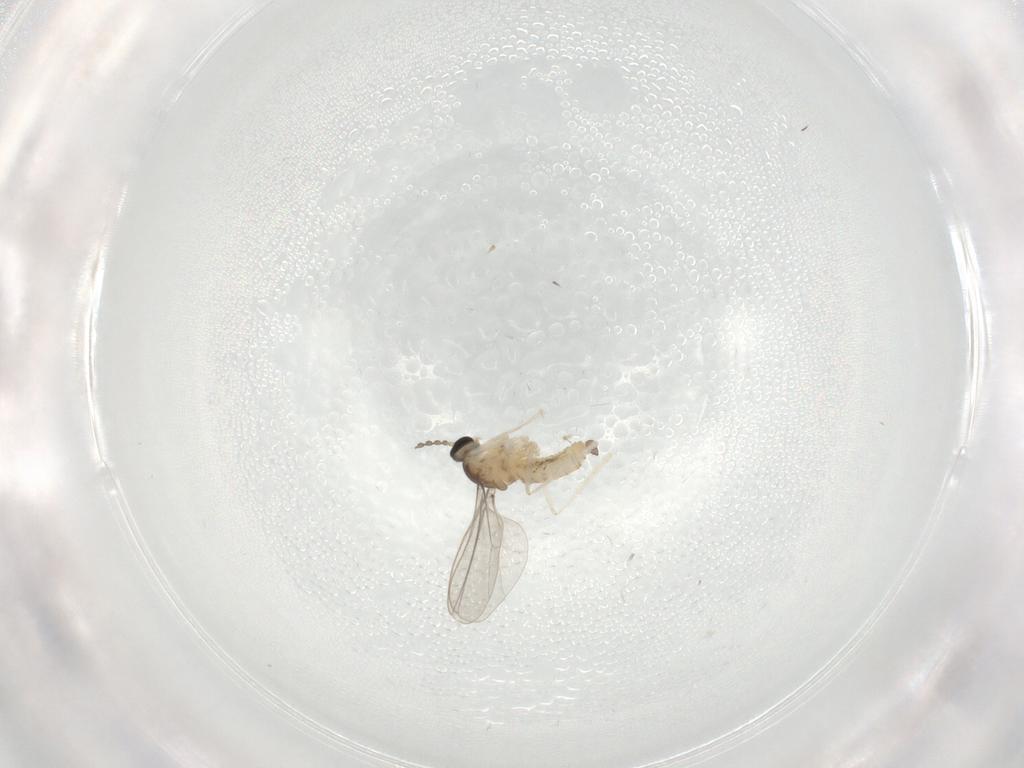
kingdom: Animalia
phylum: Arthropoda
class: Insecta
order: Diptera
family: Cecidomyiidae
